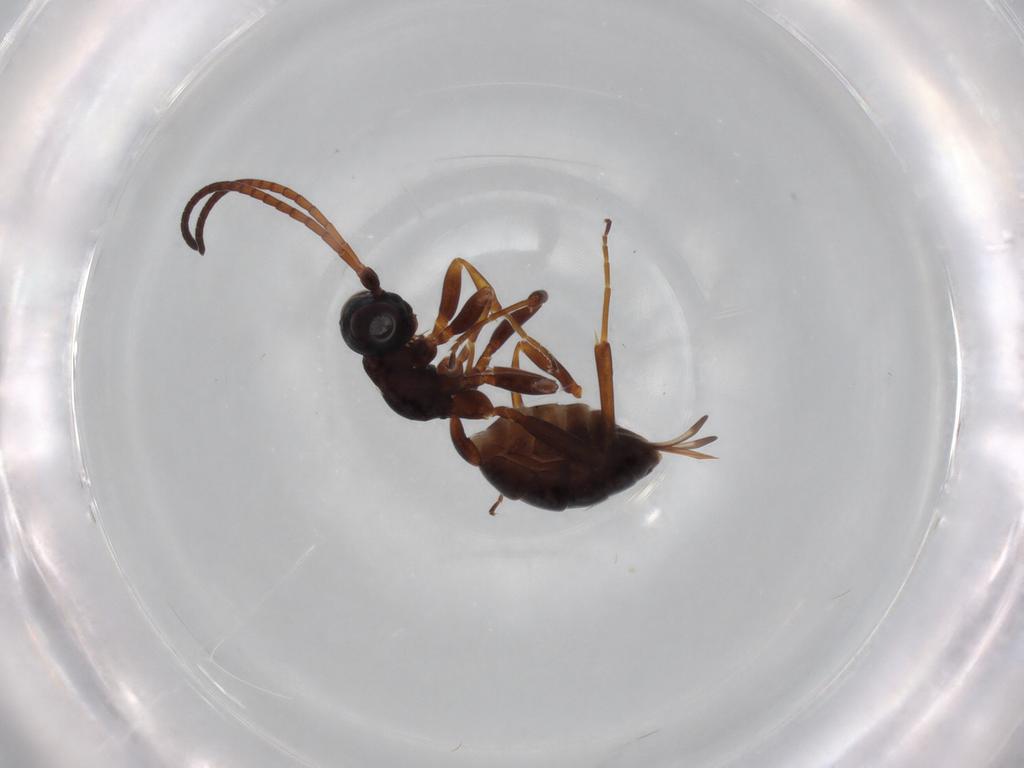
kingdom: Animalia
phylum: Arthropoda
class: Insecta
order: Hymenoptera
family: Ichneumonidae
